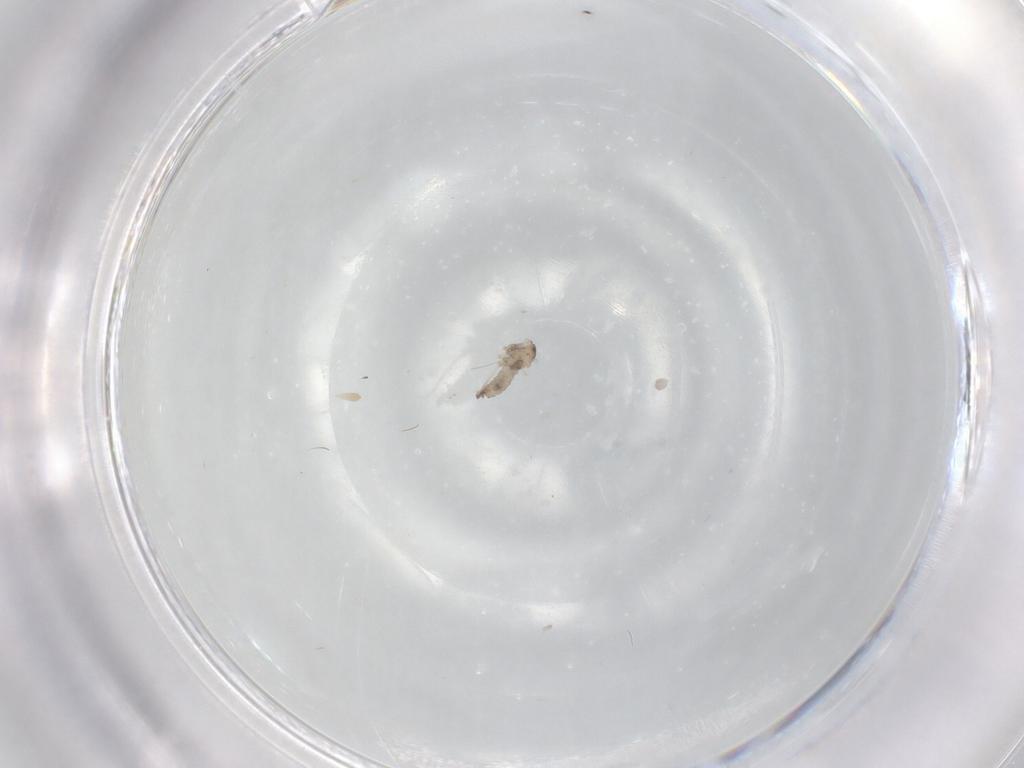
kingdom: Animalia
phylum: Arthropoda
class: Insecta
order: Diptera
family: Cecidomyiidae
